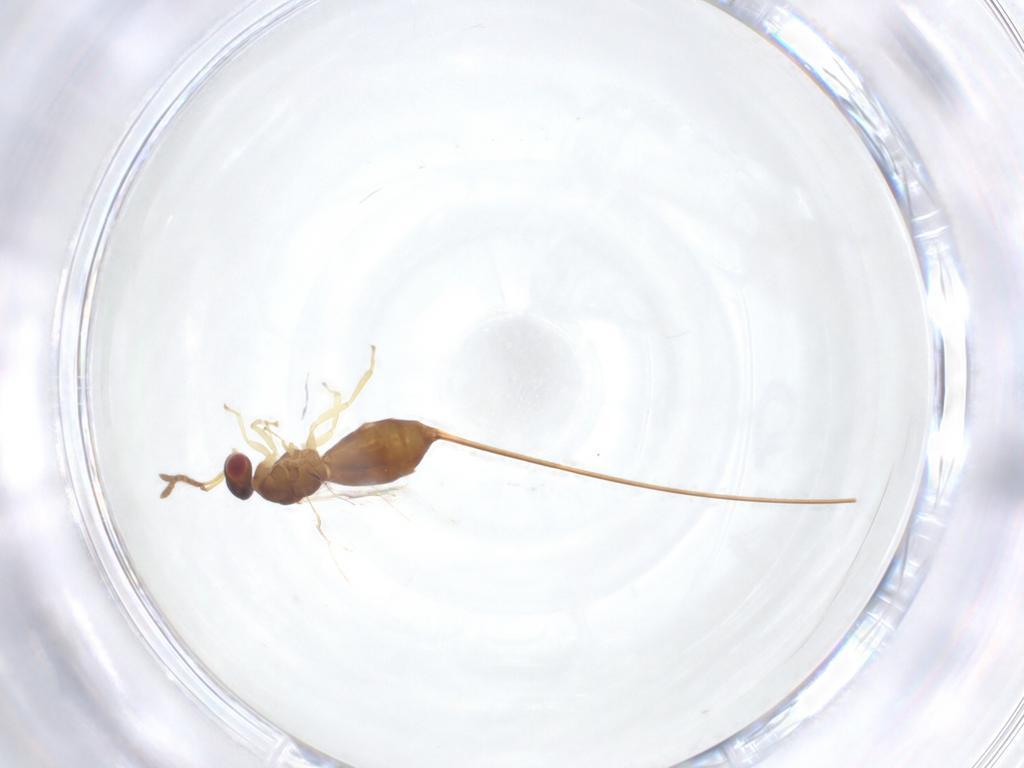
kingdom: Animalia
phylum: Arthropoda
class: Insecta
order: Hymenoptera
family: Pteromalidae
